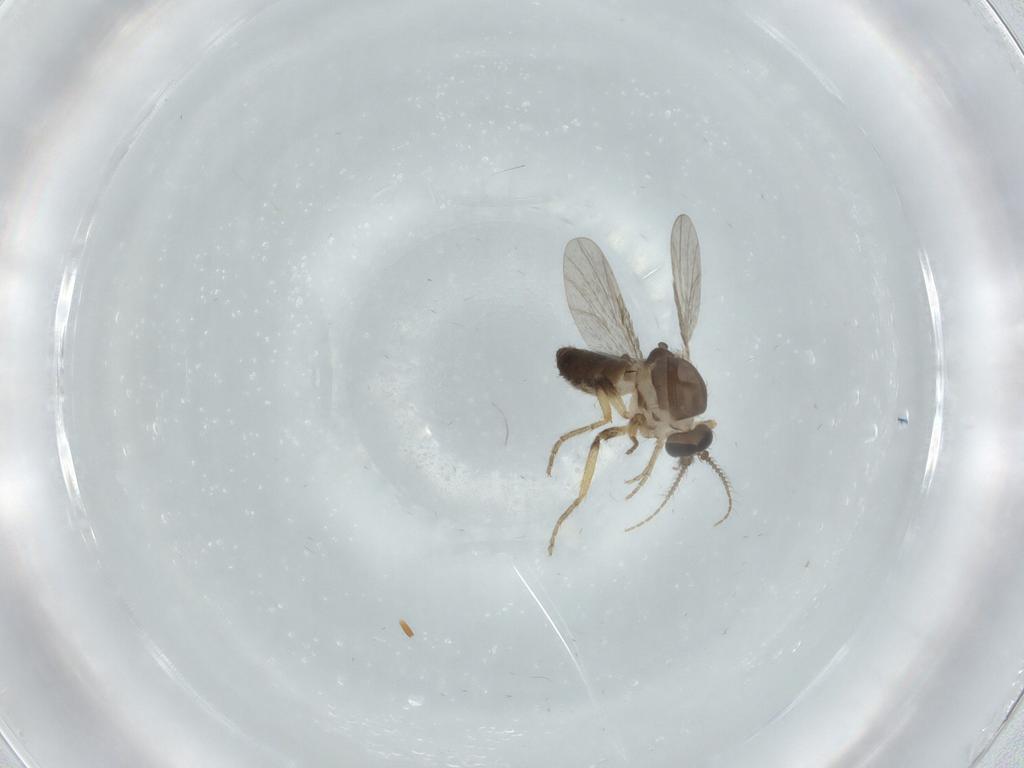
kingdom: Animalia
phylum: Arthropoda
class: Insecta
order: Diptera
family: Ceratopogonidae
